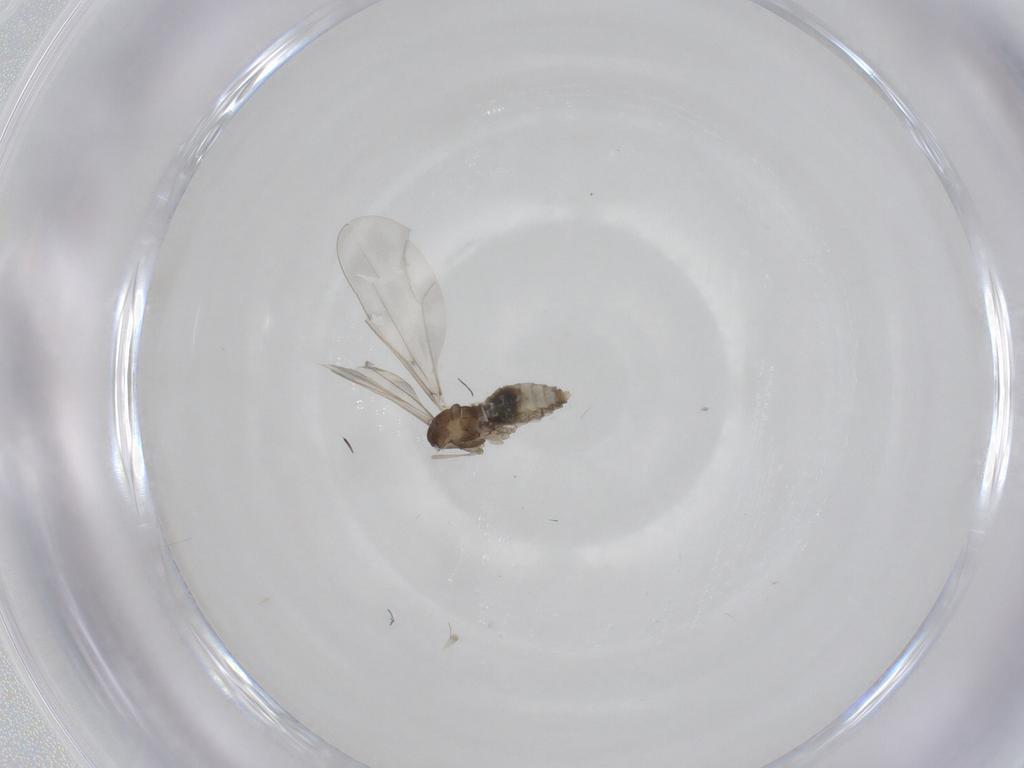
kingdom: Animalia
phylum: Arthropoda
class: Insecta
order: Diptera
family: Cecidomyiidae
